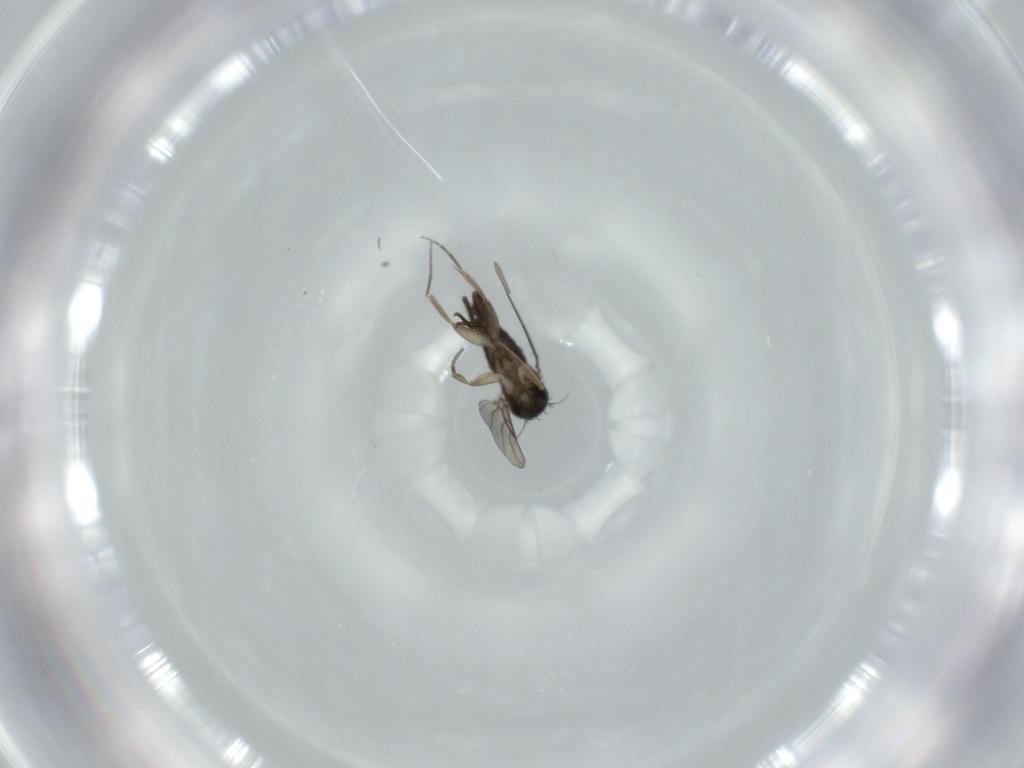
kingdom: Animalia
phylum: Arthropoda
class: Insecta
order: Diptera
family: Phoridae
